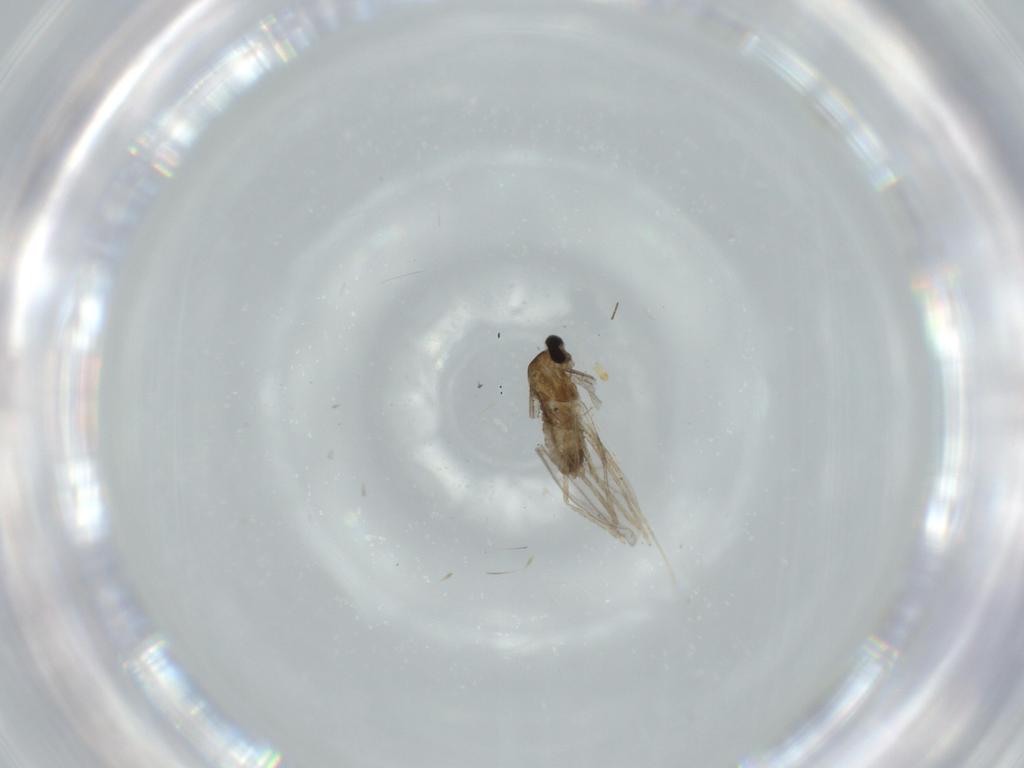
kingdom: Animalia
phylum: Arthropoda
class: Insecta
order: Diptera
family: Cecidomyiidae
